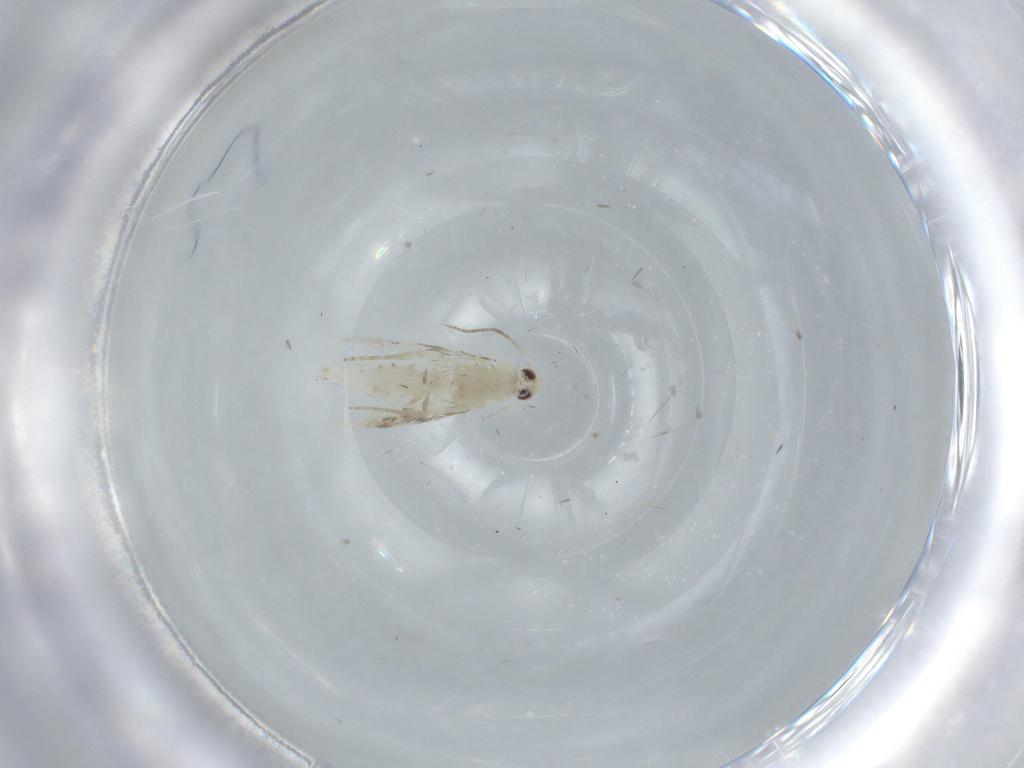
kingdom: Animalia
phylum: Arthropoda
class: Insecta
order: Lepidoptera
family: Gracillariidae
